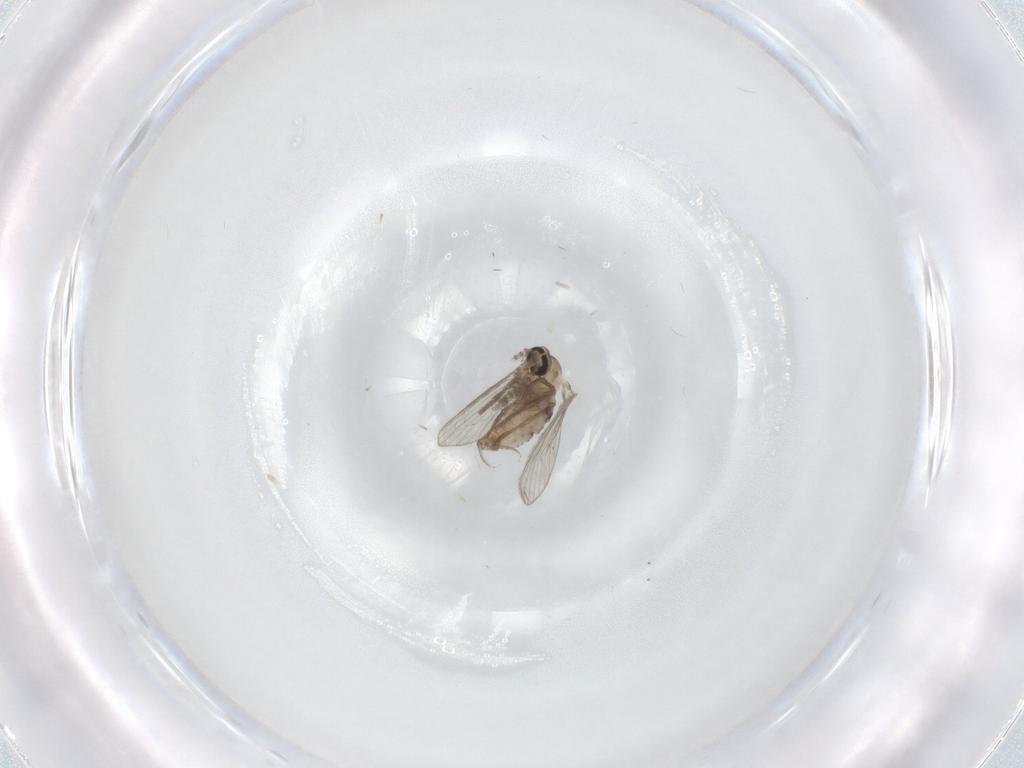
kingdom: Animalia
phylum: Arthropoda
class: Insecta
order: Diptera
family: Psychodidae
